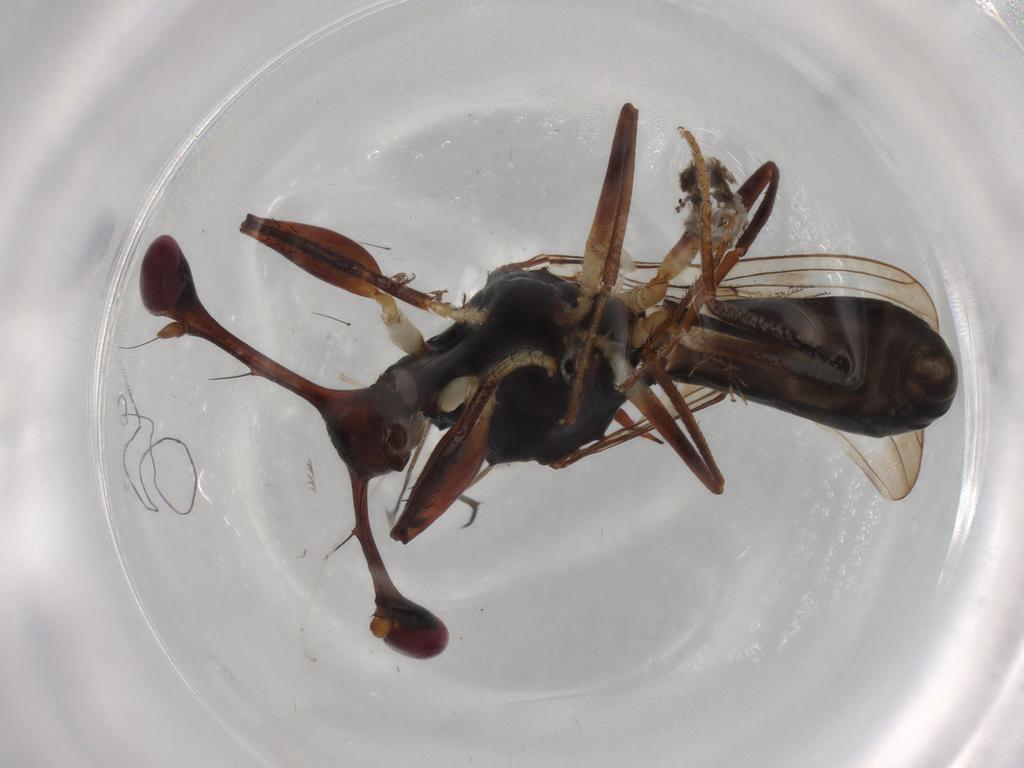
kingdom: Animalia
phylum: Arthropoda
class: Insecta
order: Diptera
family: Diopsidae
